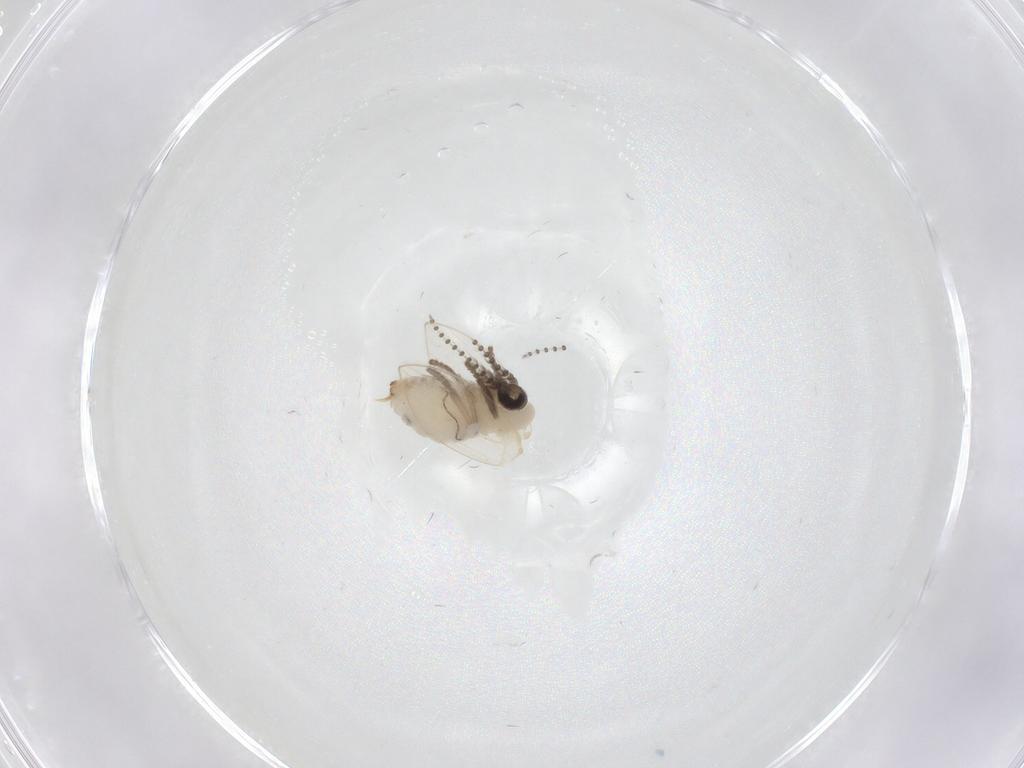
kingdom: Animalia
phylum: Arthropoda
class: Insecta
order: Diptera
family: Psychodidae
